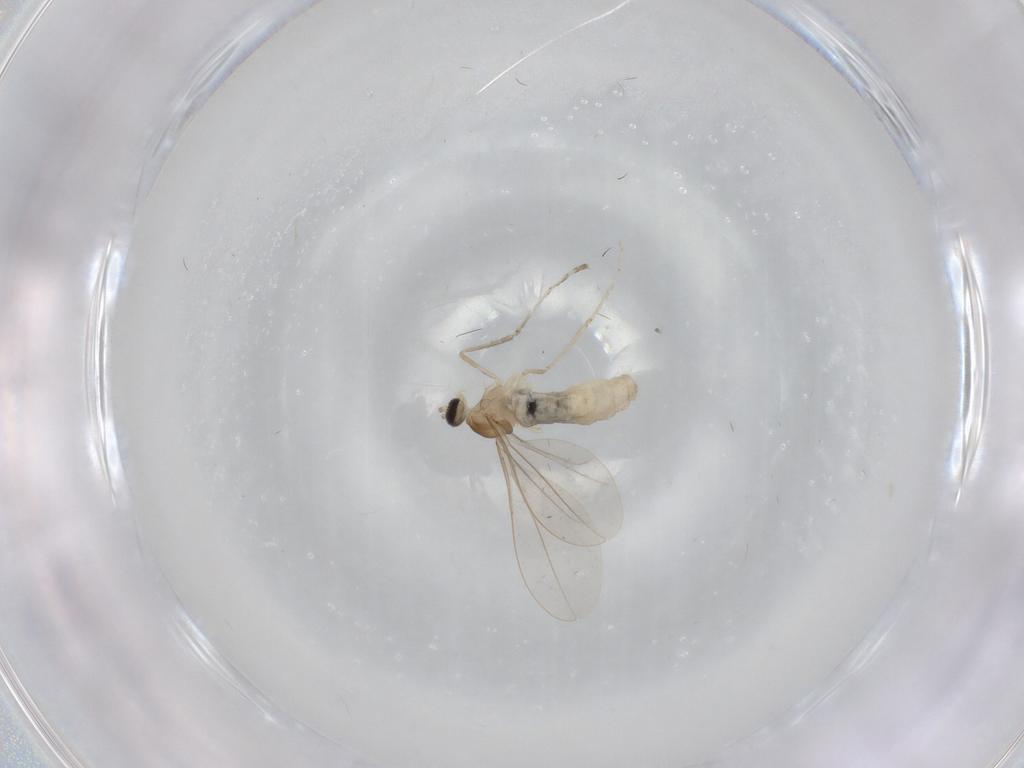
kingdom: Animalia
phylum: Arthropoda
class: Insecta
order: Diptera
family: Cecidomyiidae
